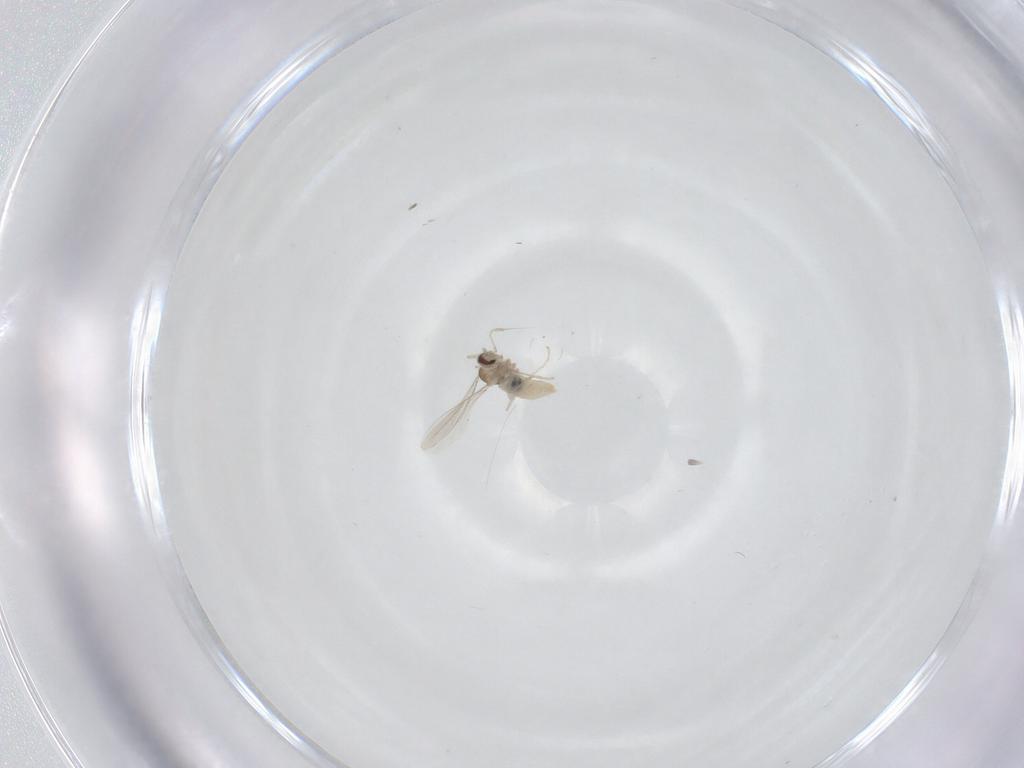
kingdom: Animalia
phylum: Arthropoda
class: Insecta
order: Diptera
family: Cecidomyiidae
